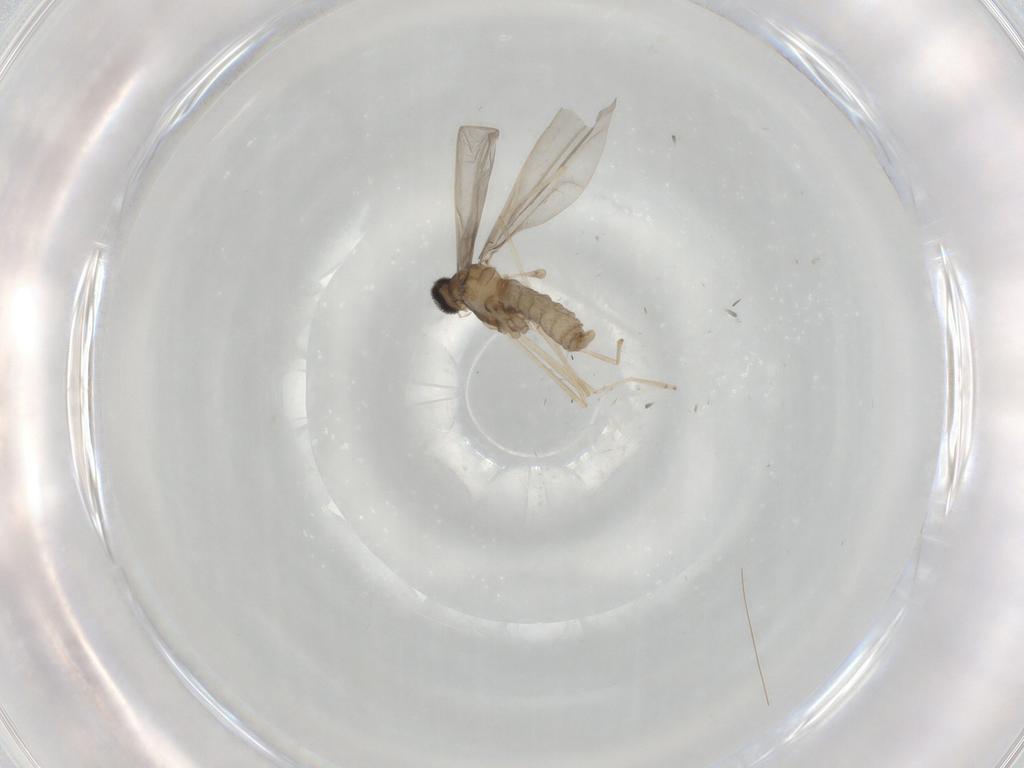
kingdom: Animalia
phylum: Arthropoda
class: Insecta
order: Diptera
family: Cecidomyiidae
